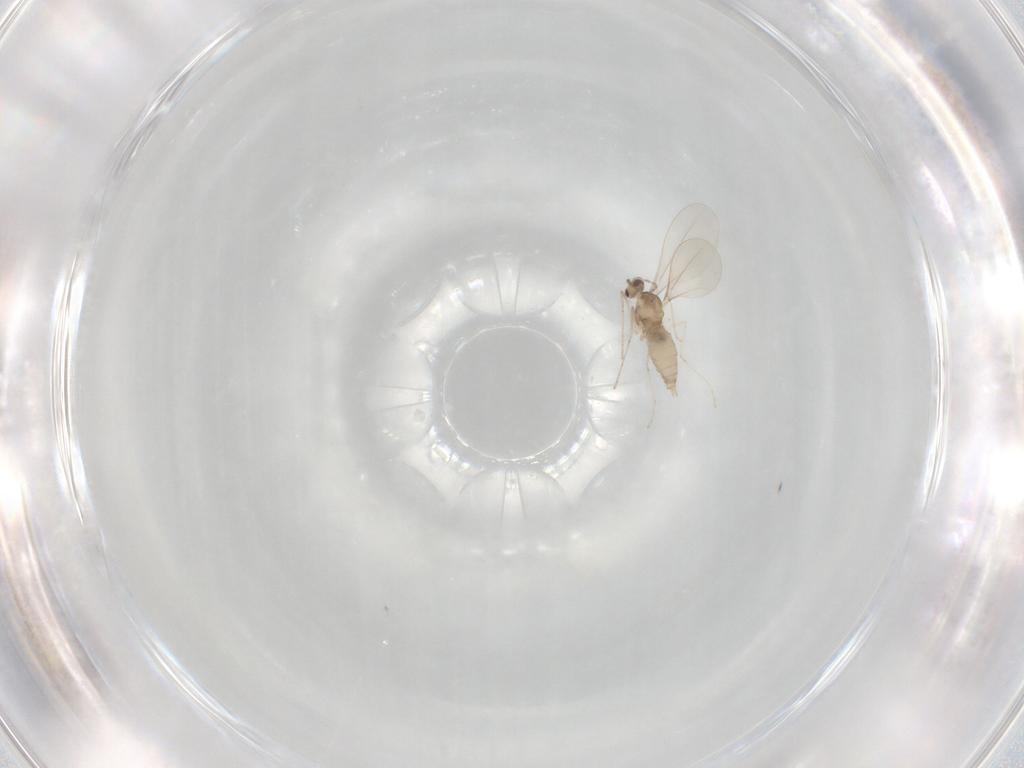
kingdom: Animalia
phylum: Arthropoda
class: Insecta
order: Diptera
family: Cecidomyiidae
